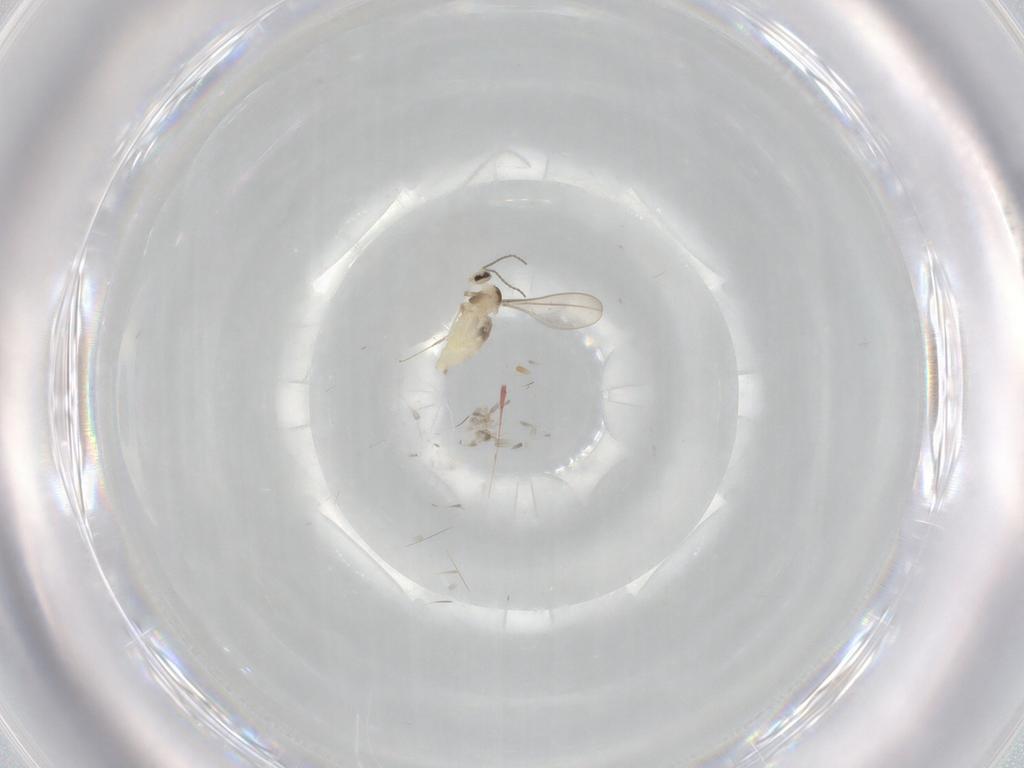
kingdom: Animalia
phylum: Arthropoda
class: Insecta
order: Diptera
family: Cecidomyiidae
